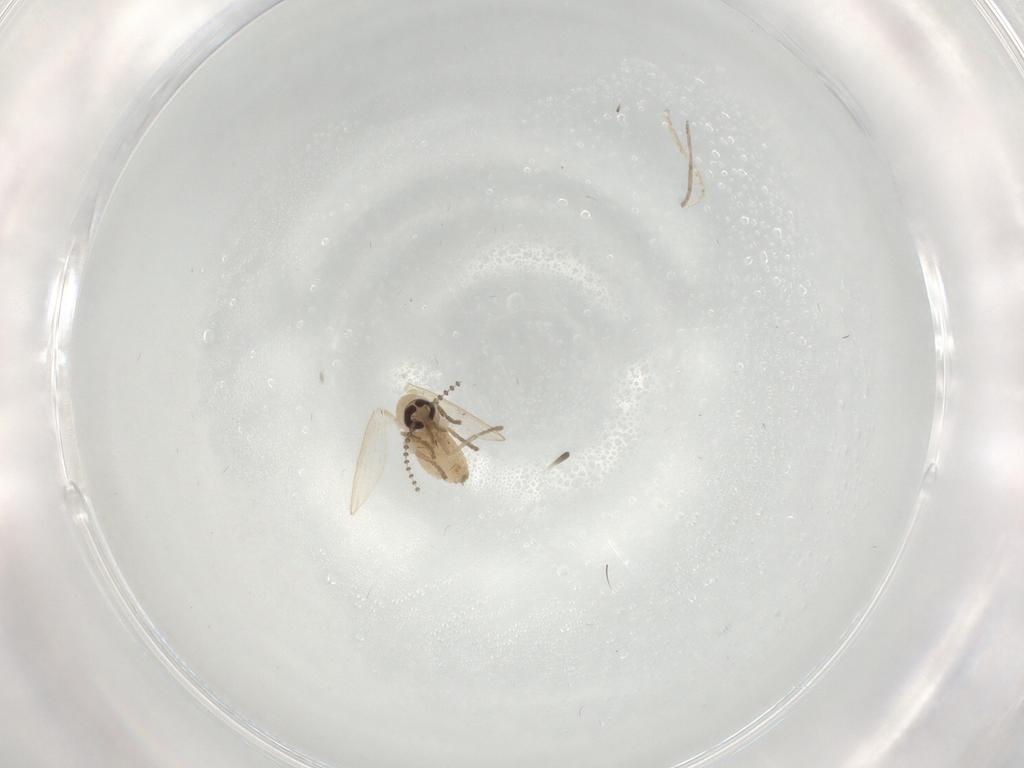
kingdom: Animalia
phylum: Arthropoda
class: Insecta
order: Diptera
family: Psychodidae
